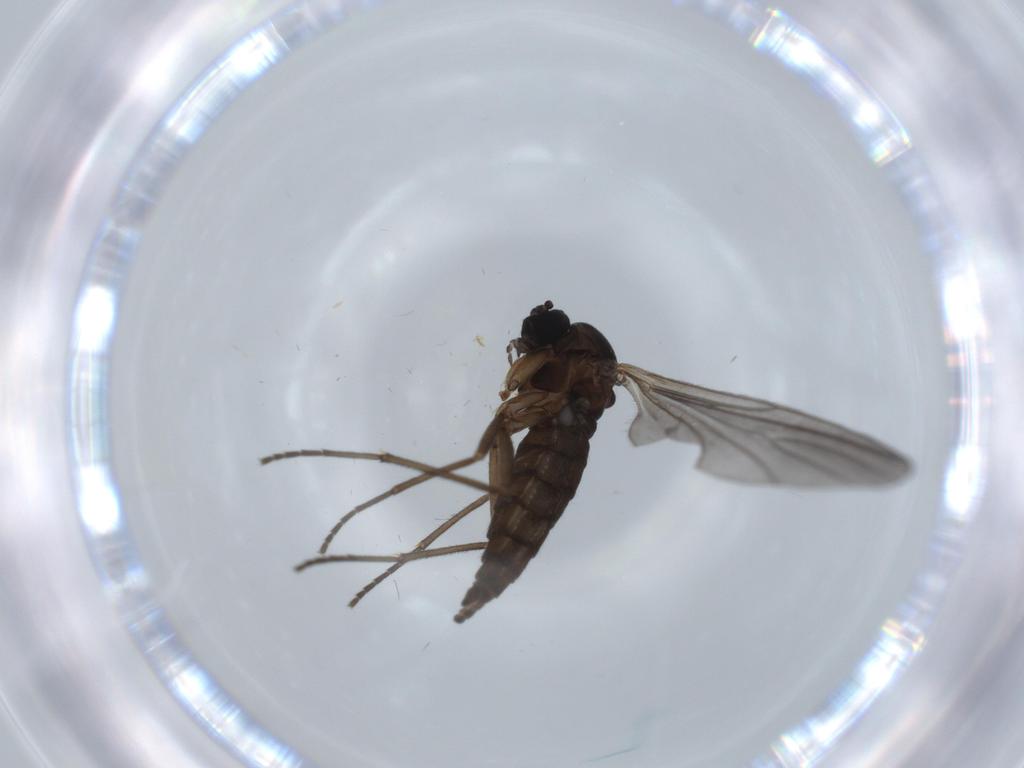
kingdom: Animalia
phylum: Arthropoda
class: Insecta
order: Diptera
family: Sciaridae
